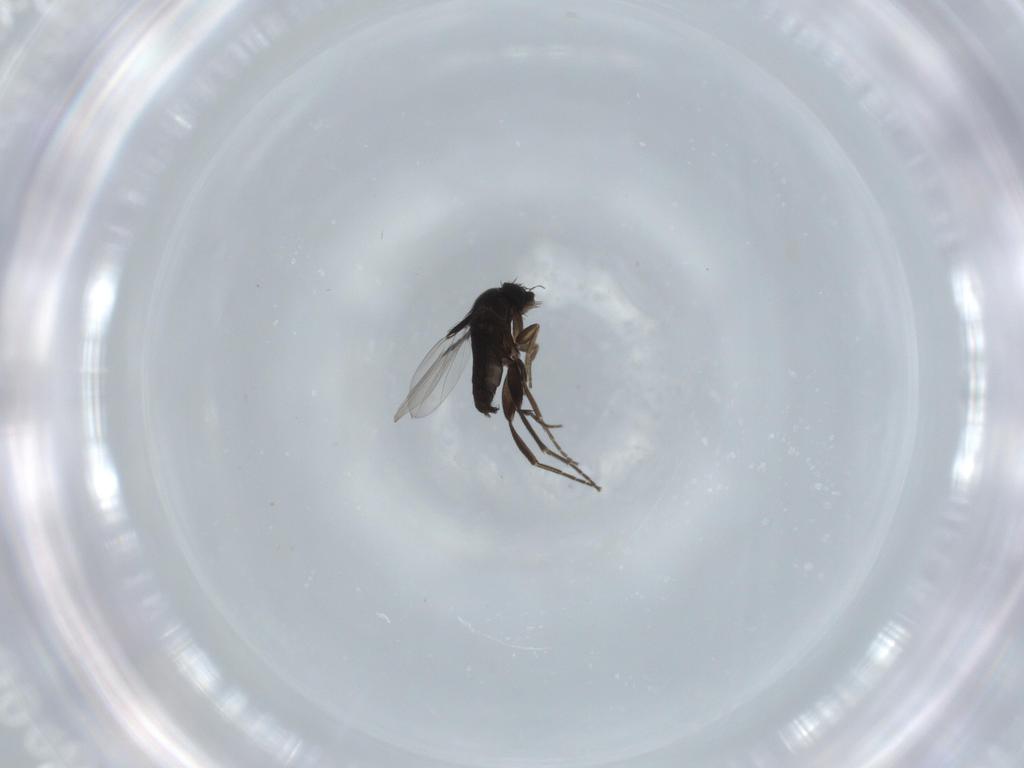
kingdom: Animalia
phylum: Arthropoda
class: Insecta
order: Diptera
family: Phoridae
